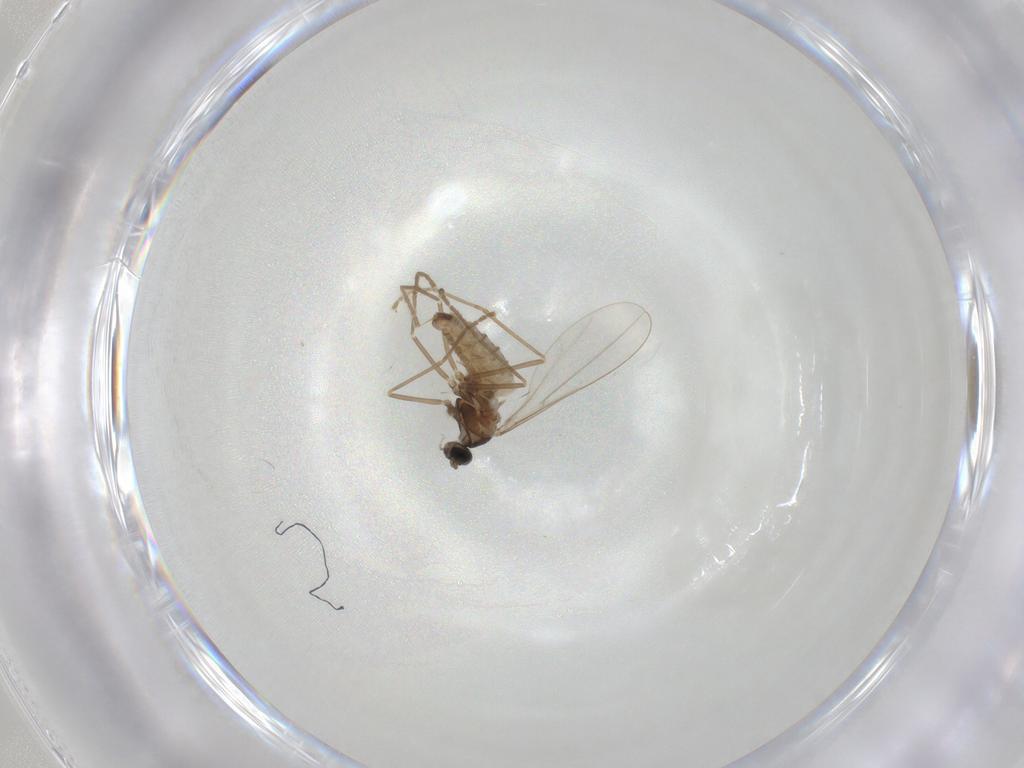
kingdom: Animalia
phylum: Arthropoda
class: Insecta
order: Diptera
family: Cecidomyiidae
